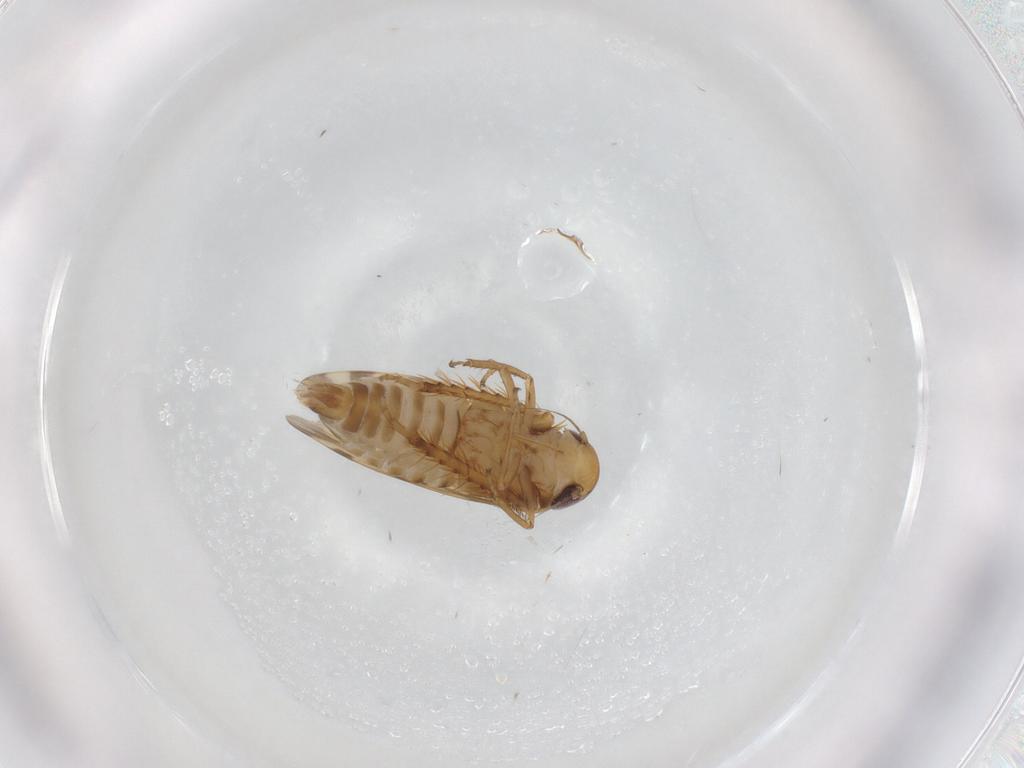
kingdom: Animalia
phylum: Arthropoda
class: Insecta
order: Hemiptera
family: Cicadellidae
